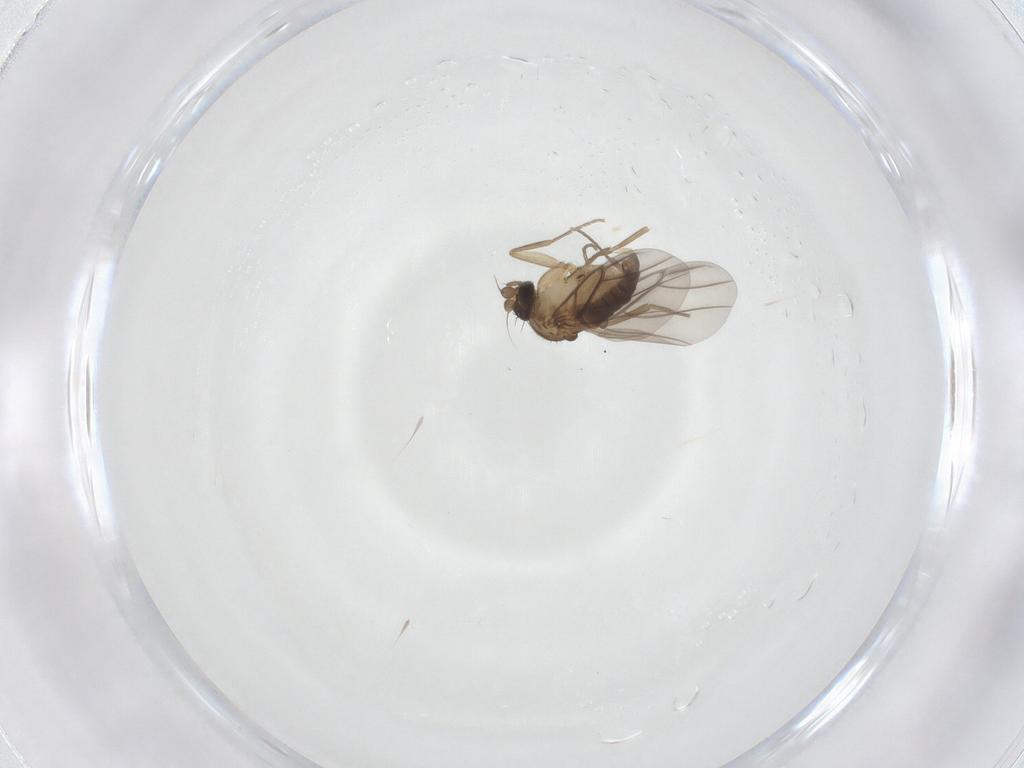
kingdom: Animalia
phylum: Arthropoda
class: Insecta
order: Diptera
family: Phoridae
